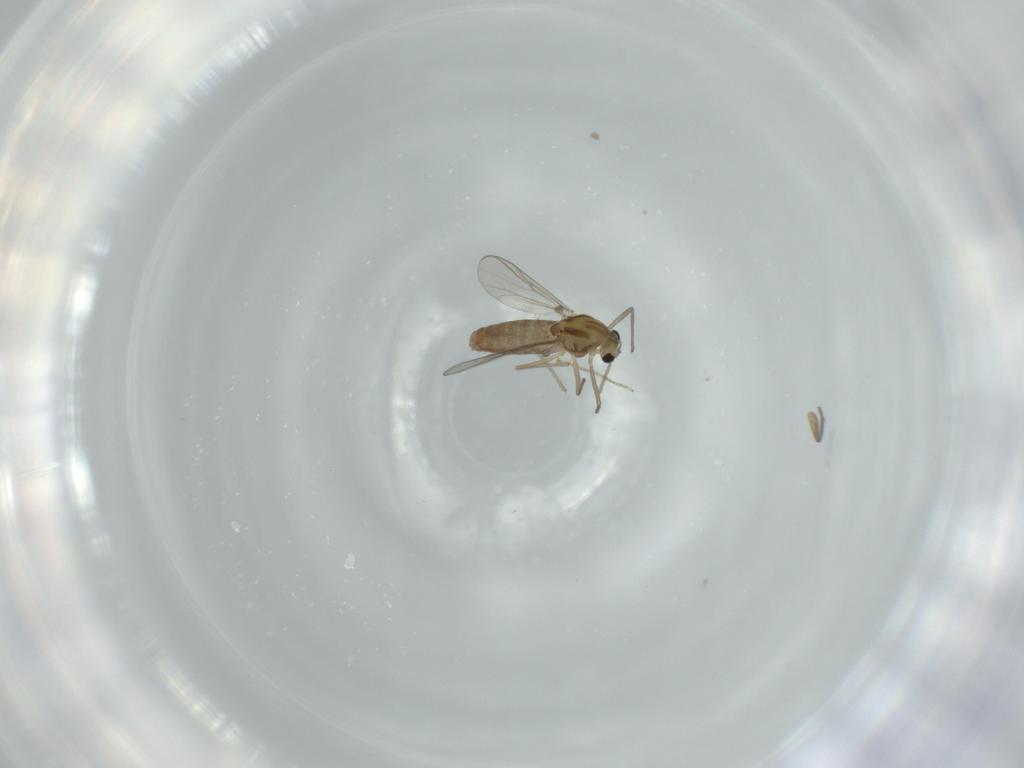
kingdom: Animalia
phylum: Arthropoda
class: Insecta
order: Diptera
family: Chironomidae
